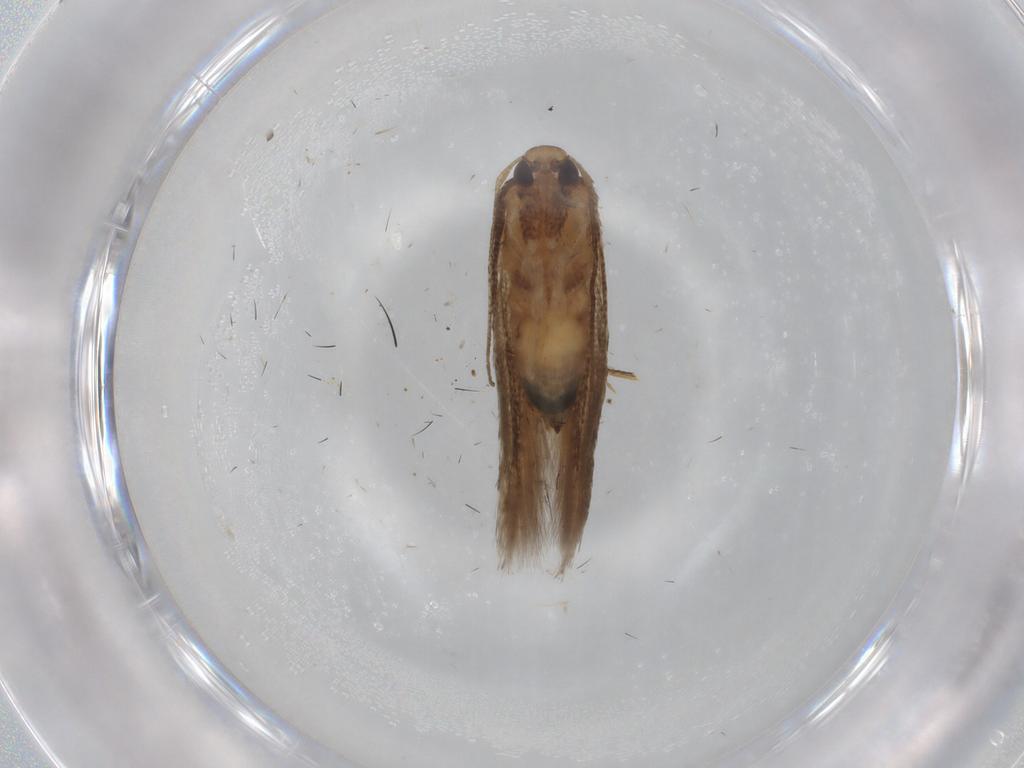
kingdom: Animalia
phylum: Arthropoda
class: Insecta
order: Lepidoptera
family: Cosmopterigidae
